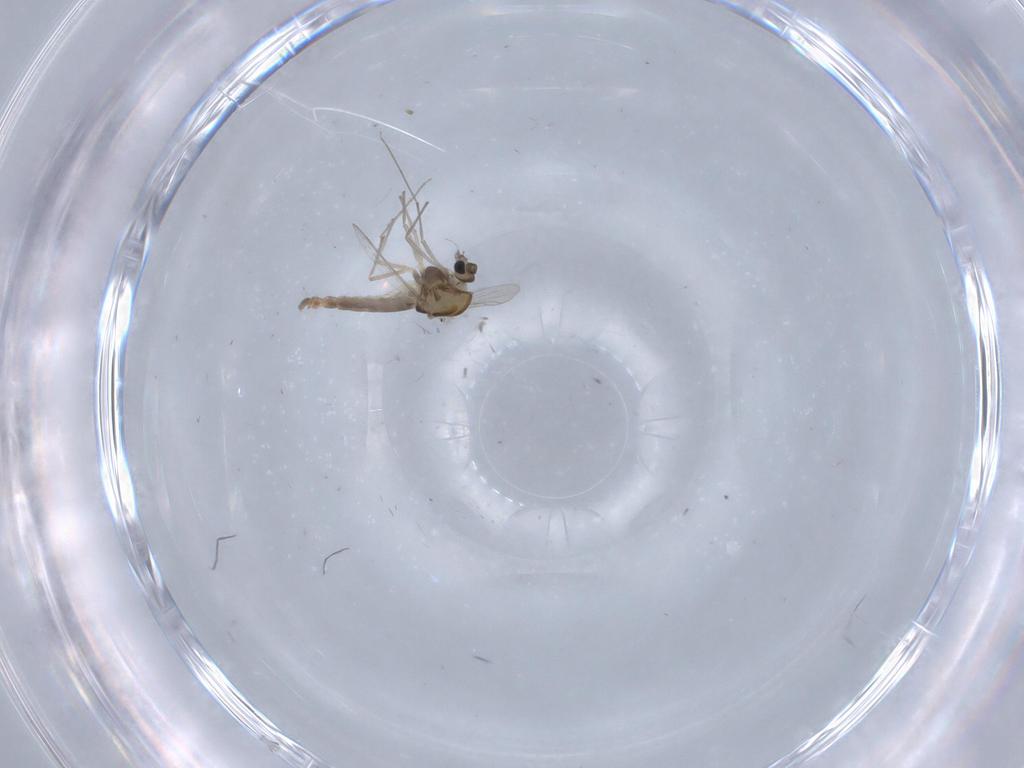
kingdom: Animalia
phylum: Arthropoda
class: Insecta
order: Diptera
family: Chironomidae
